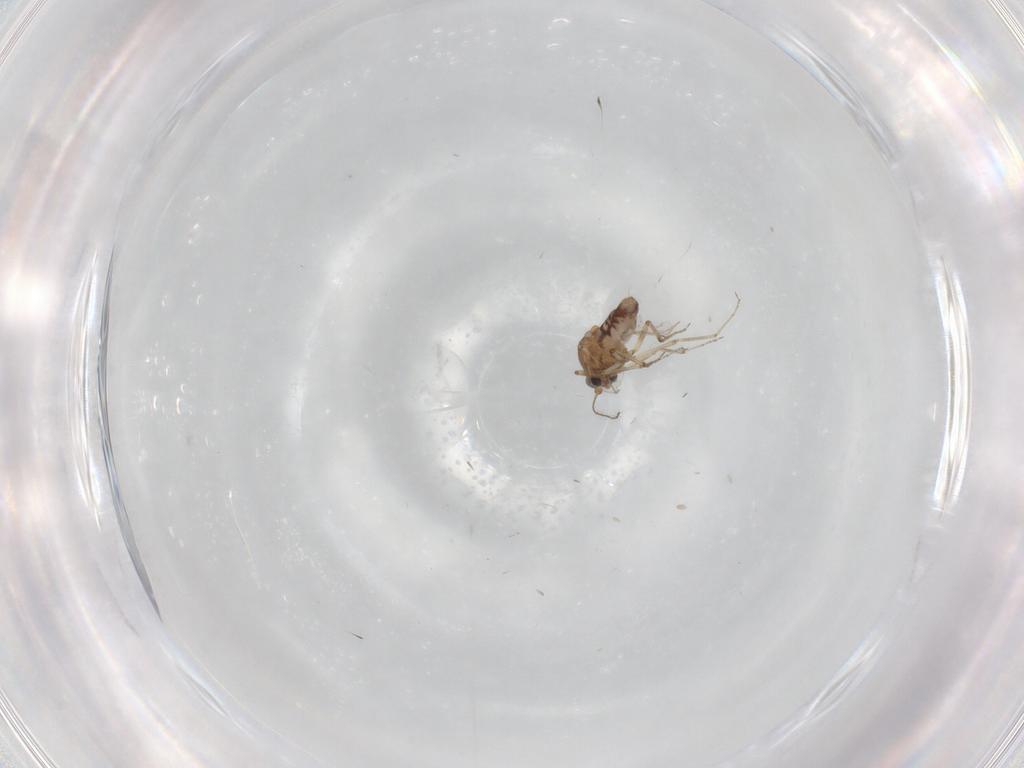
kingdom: Animalia
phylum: Arthropoda
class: Insecta
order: Diptera
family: Ceratopogonidae
